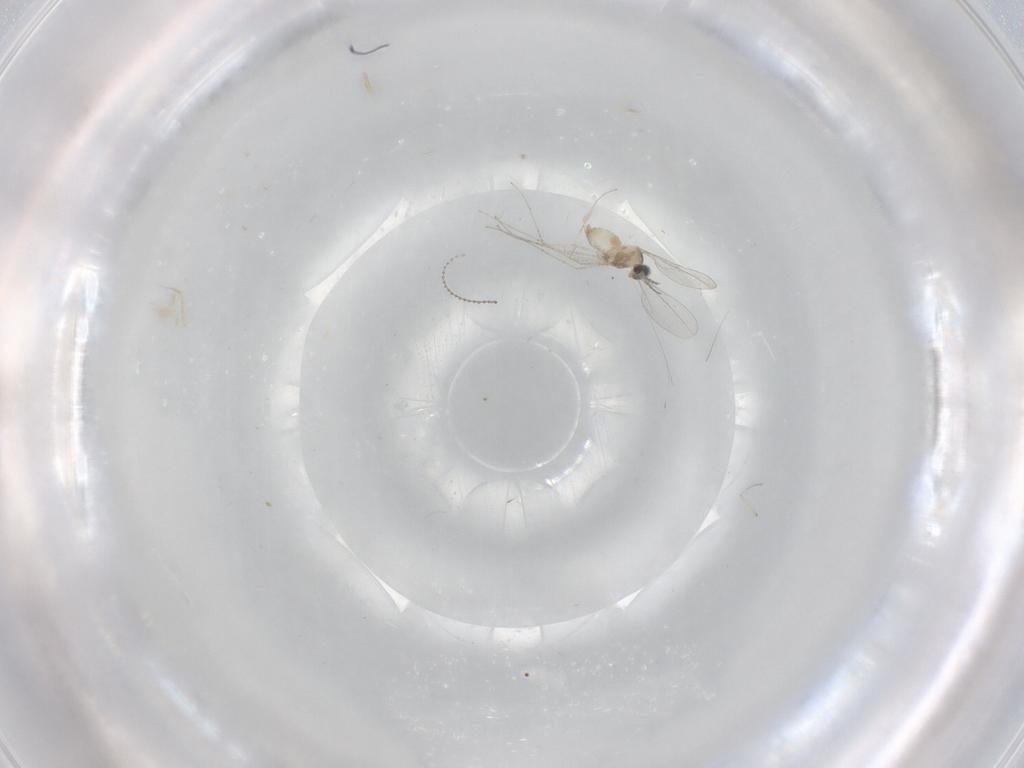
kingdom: Animalia
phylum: Arthropoda
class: Insecta
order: Diptera
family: Cecidomyiidae
